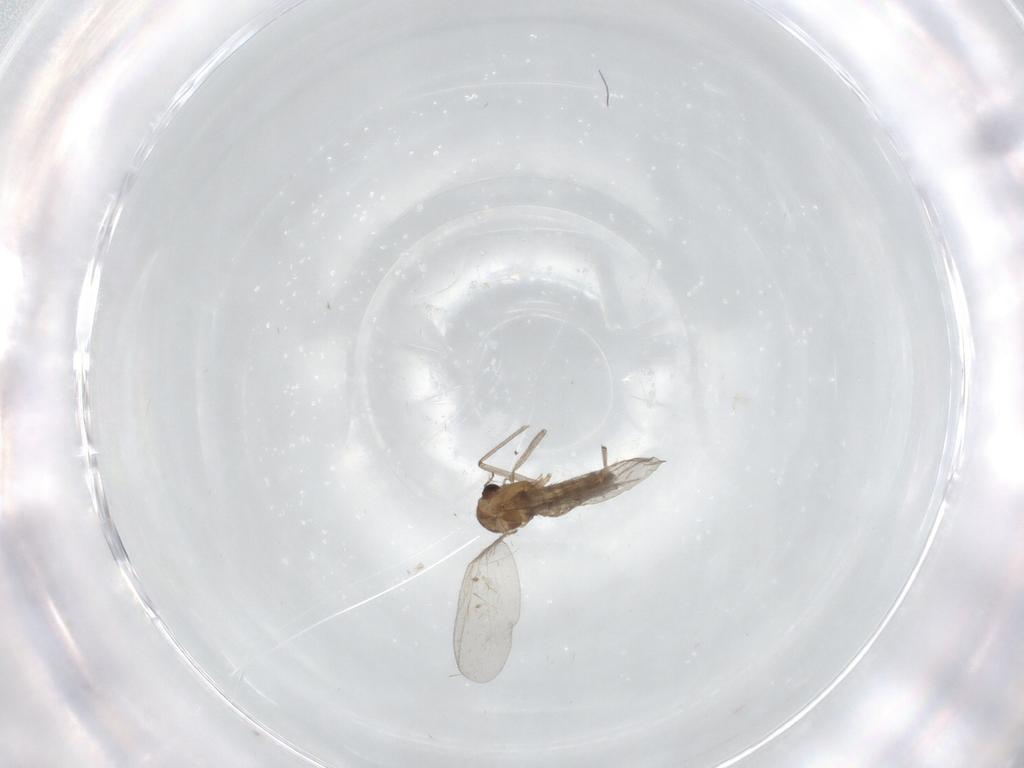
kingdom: Animalia
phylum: Arthropoda
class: Insecta
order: Diptera
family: Chironomidae
